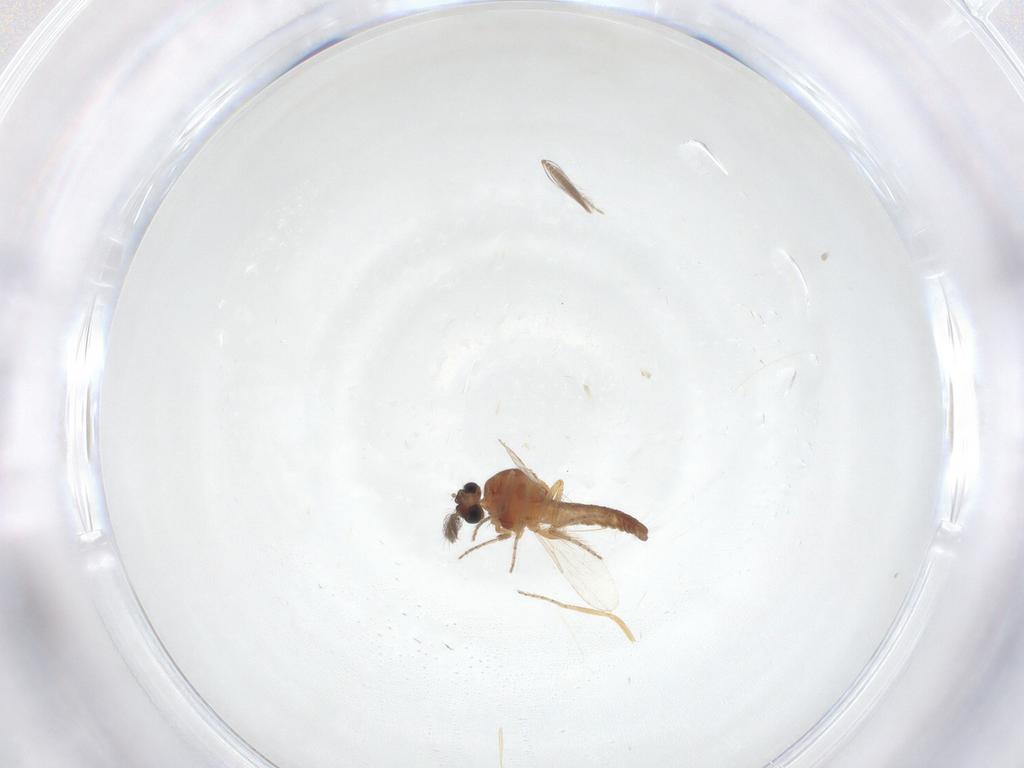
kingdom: Animalia
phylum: Arthropoda
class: Insecta
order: Diptera
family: Ceratopogonidae
